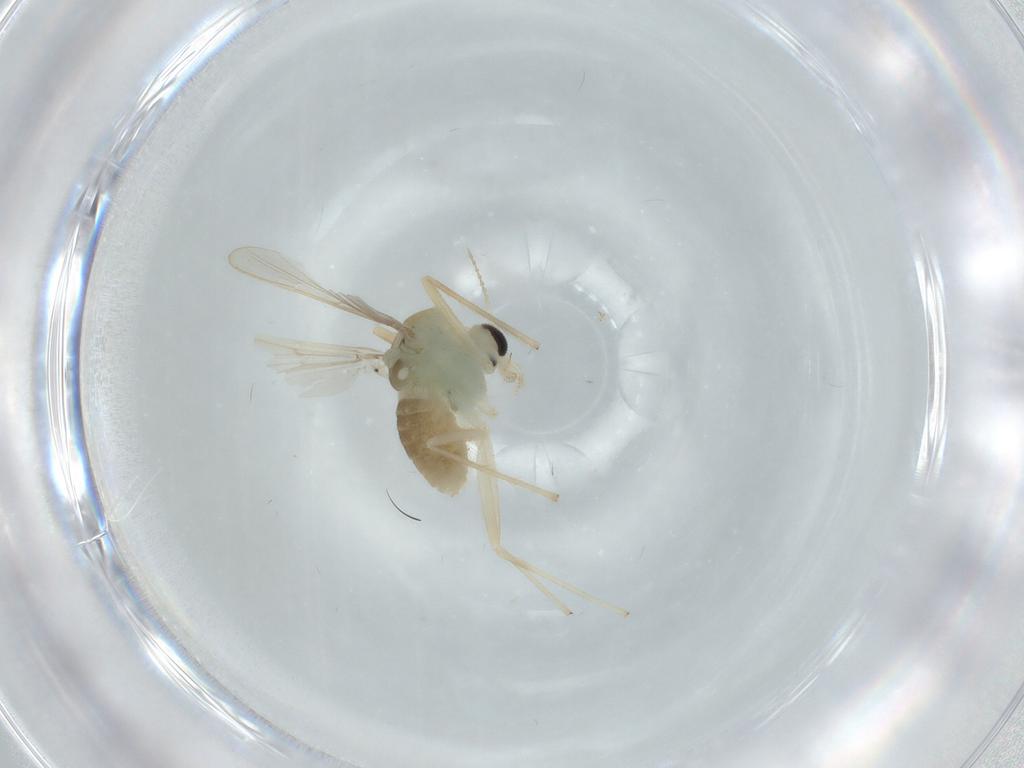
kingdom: Animalia
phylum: Arthropoda
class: Insecta
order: Diptera
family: Chironomidae
